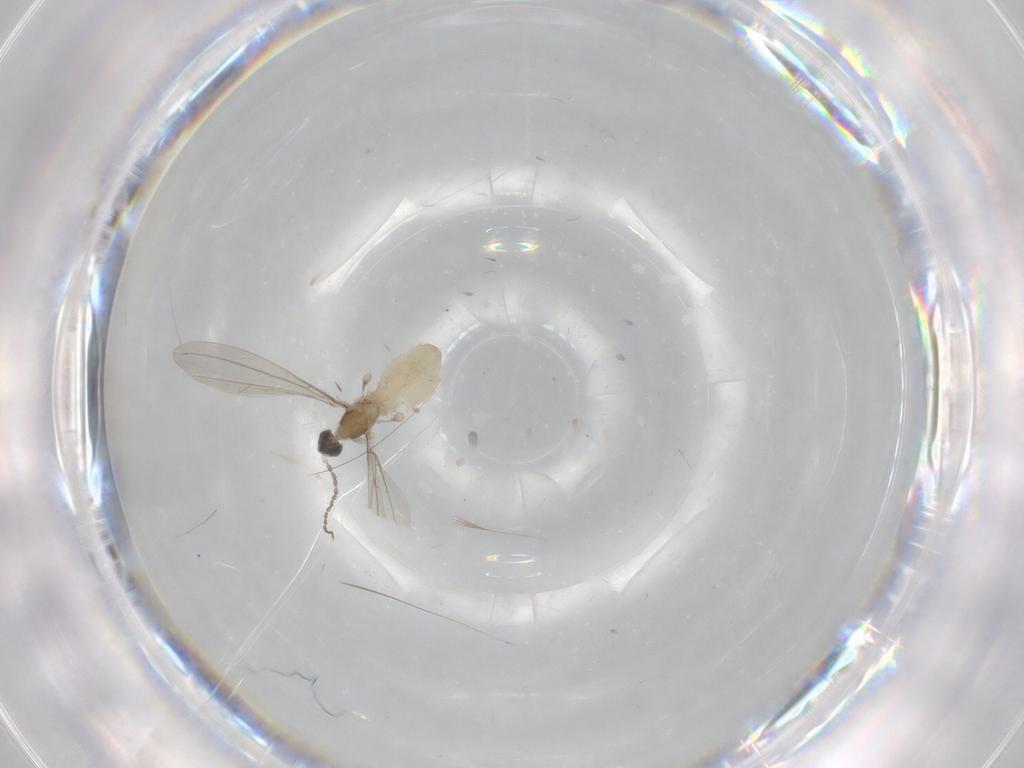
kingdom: Animalia
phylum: Arthropoda
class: Insecta
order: Diptera
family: Cecidomyiidae
